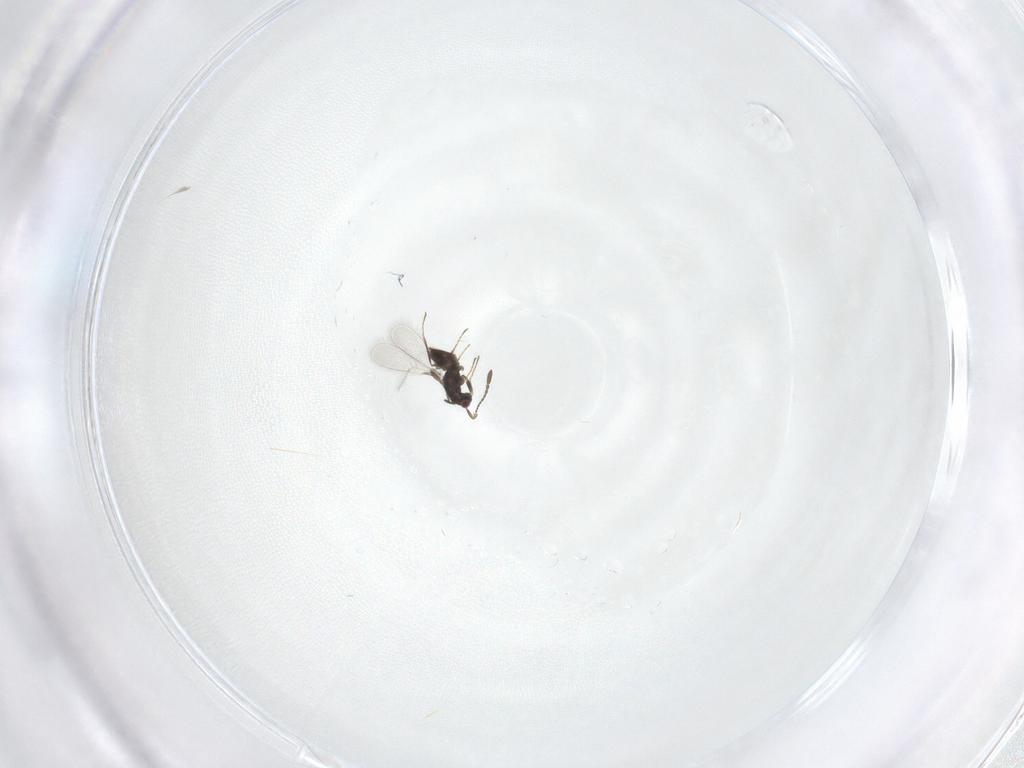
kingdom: Animalia
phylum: Arthropoda
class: Insecta
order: Hymenoptera
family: Mymaridae
